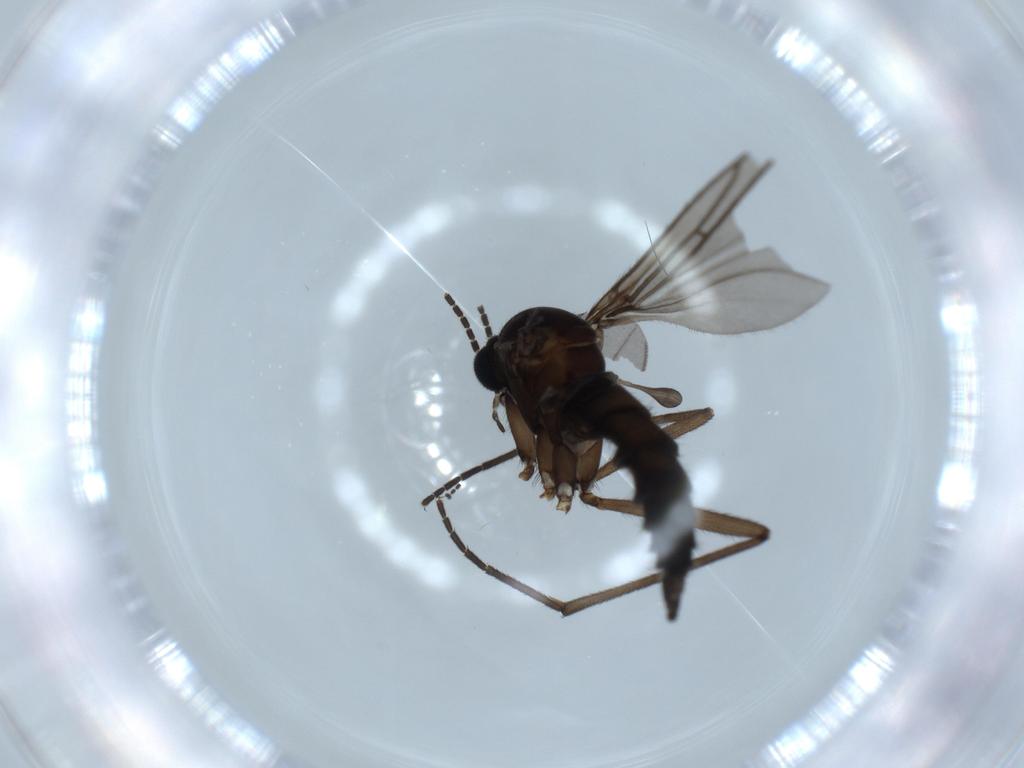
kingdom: Animalia
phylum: Arthropoda
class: Insecta
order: Diptera
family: Sciaridae
